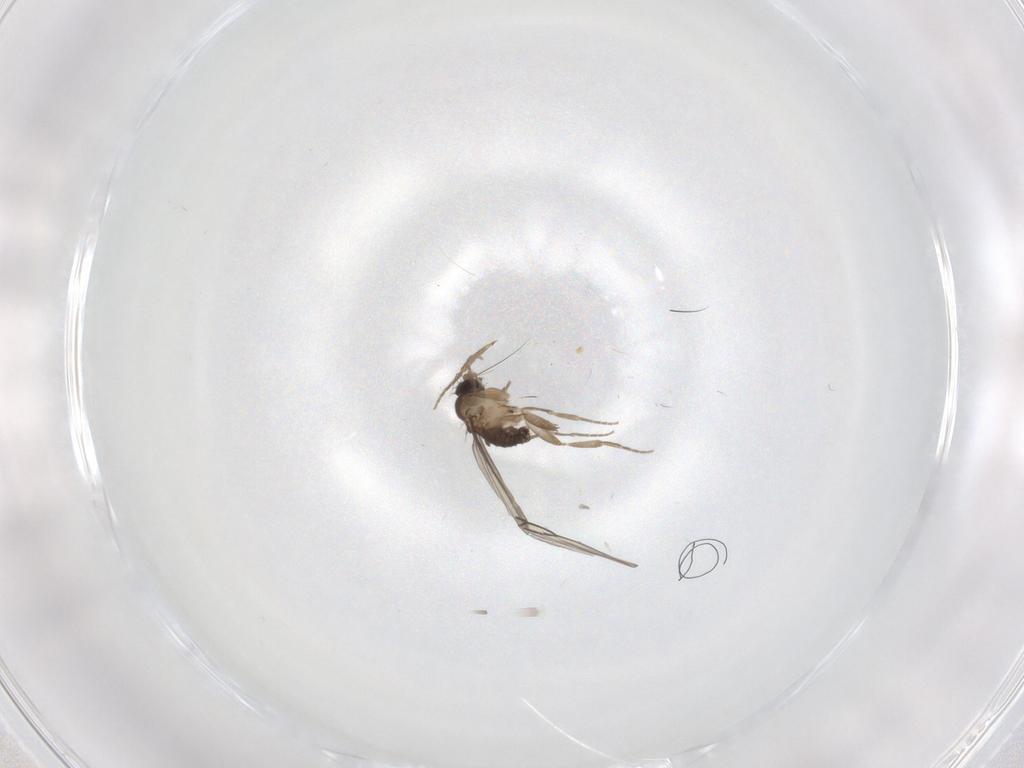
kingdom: Animalia
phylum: Arthropoda
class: Insecta
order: Diptera
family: Phoridae
